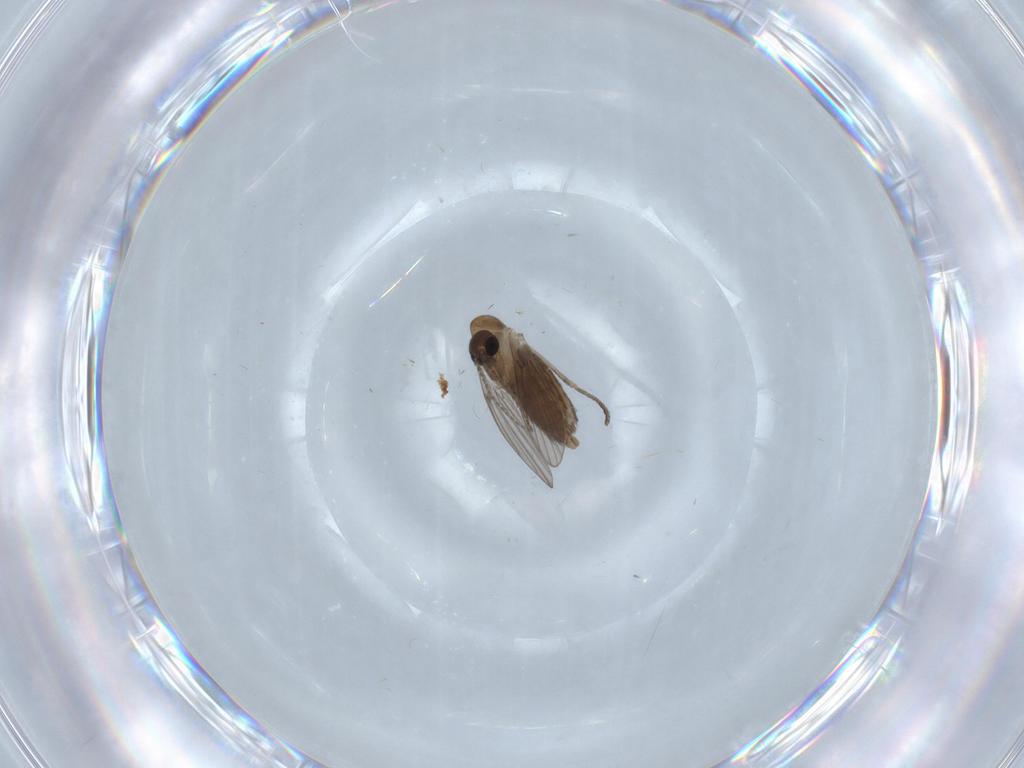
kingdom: Animalia
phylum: Arthropoda
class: Insecta
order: Diptera
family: Psychodidae
